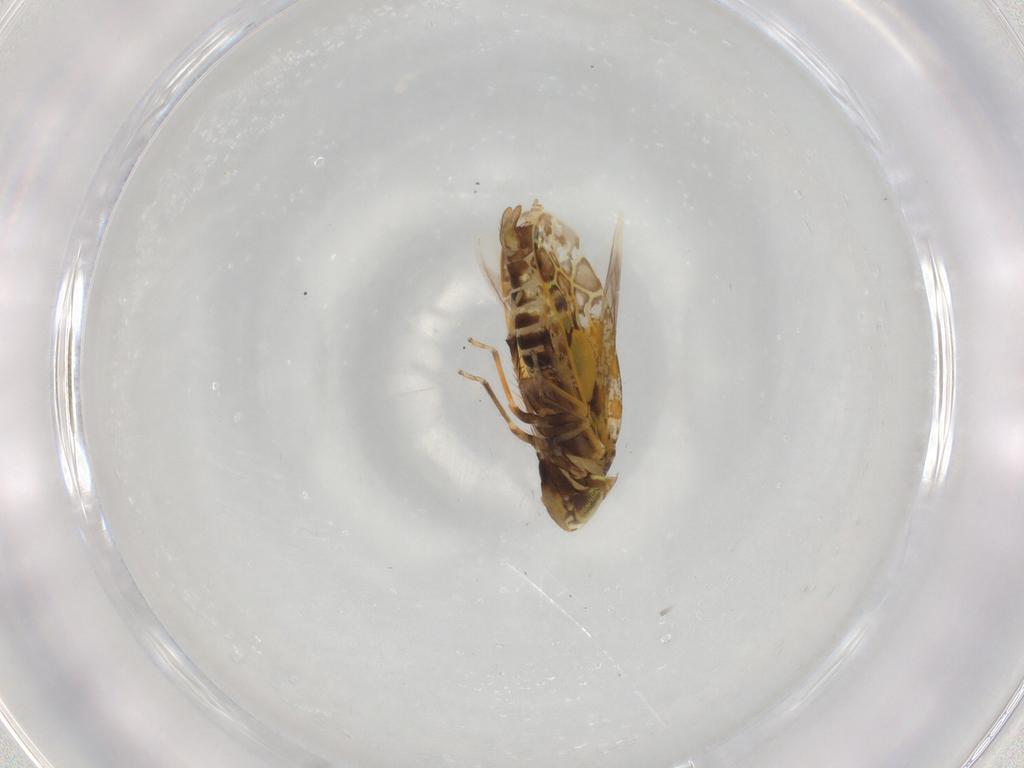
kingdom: Animalia
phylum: Arthropoda
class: Insecta
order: Hemiptera
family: Cicadellidae
